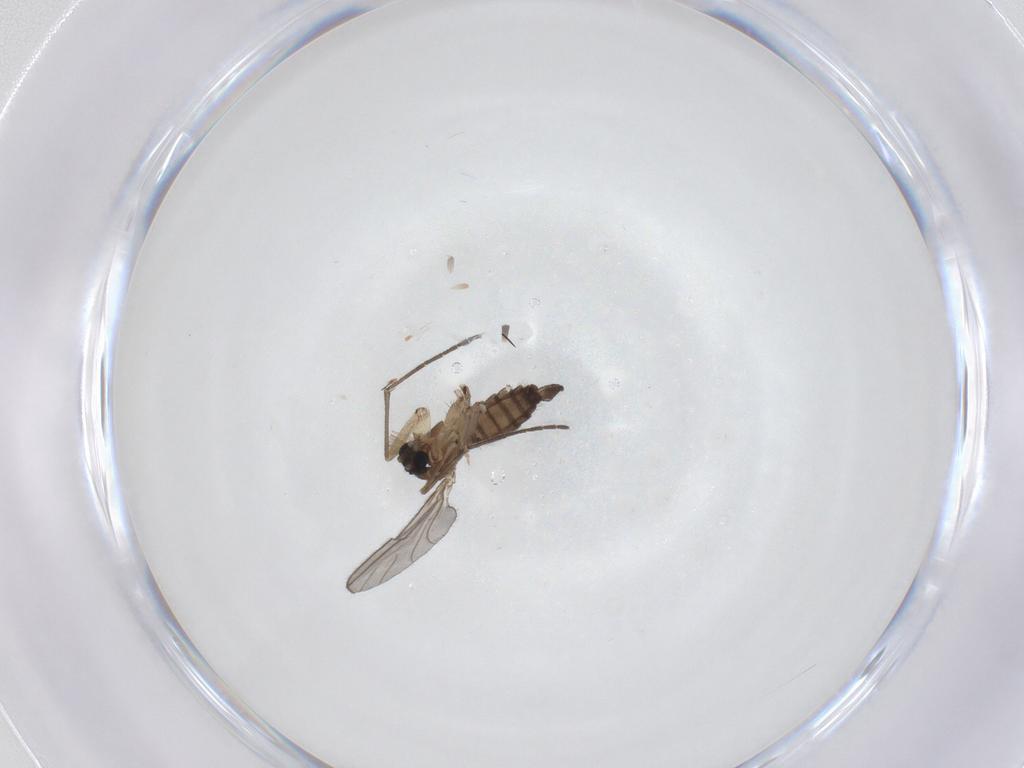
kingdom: Animalia
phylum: Arthropoda
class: Insecta
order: Diptera
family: Sciaridae
